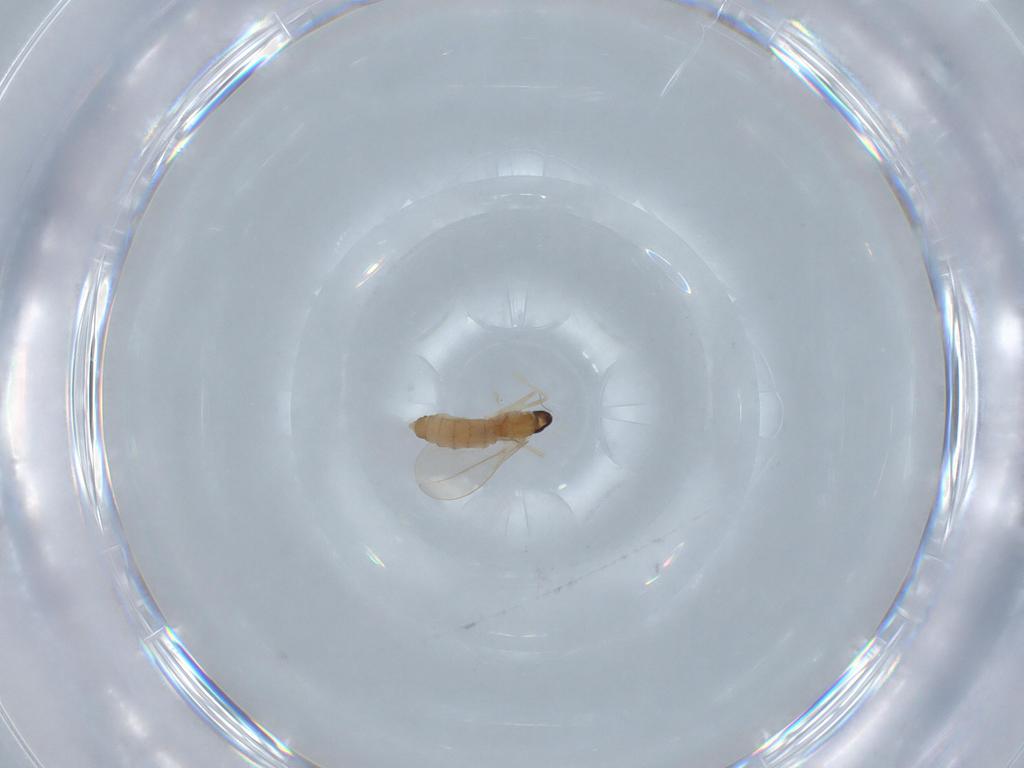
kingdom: Animalia
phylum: Arthropoda
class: Insecta
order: Diptera
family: Cecidomyiidae
